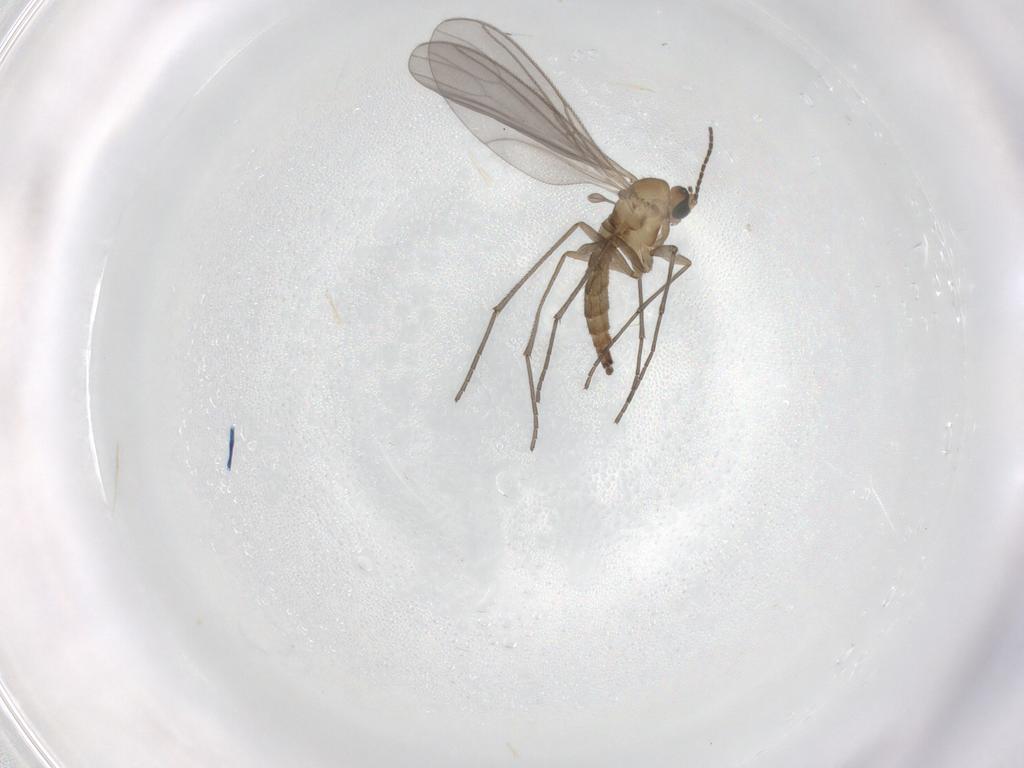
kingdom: Animalia
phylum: Arthropoda
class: Insecta
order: Diptera
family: Sciaridae
